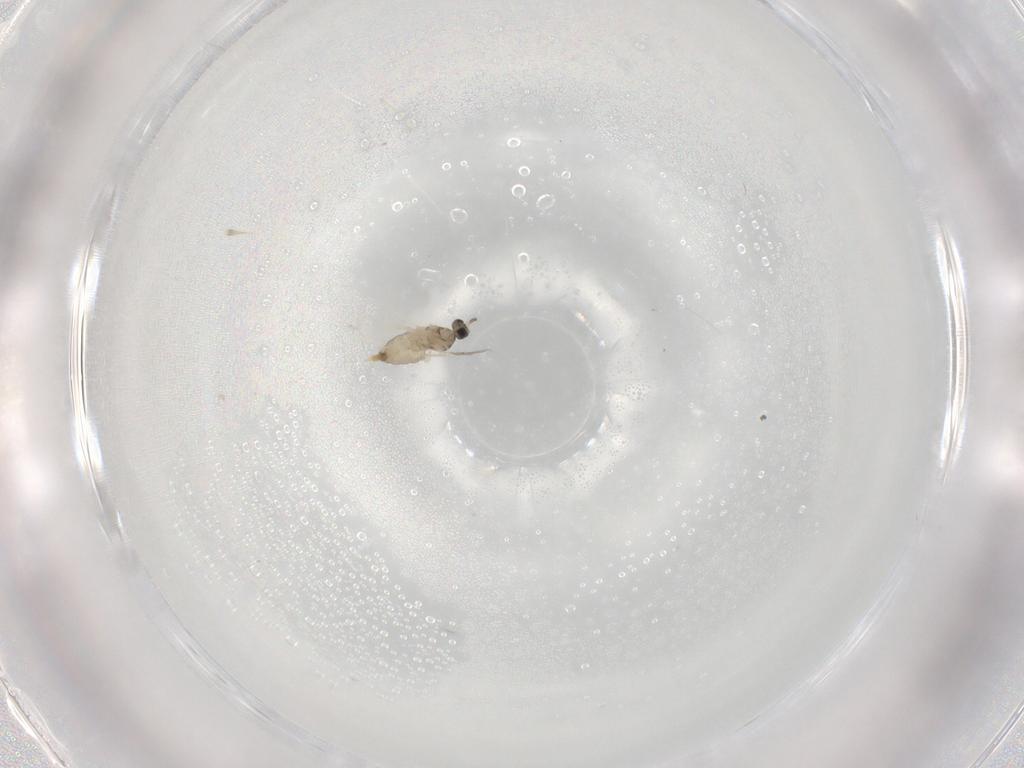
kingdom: Animalia
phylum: Arthropoda
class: Insecta
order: Diptera
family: Cecidomyiidae
